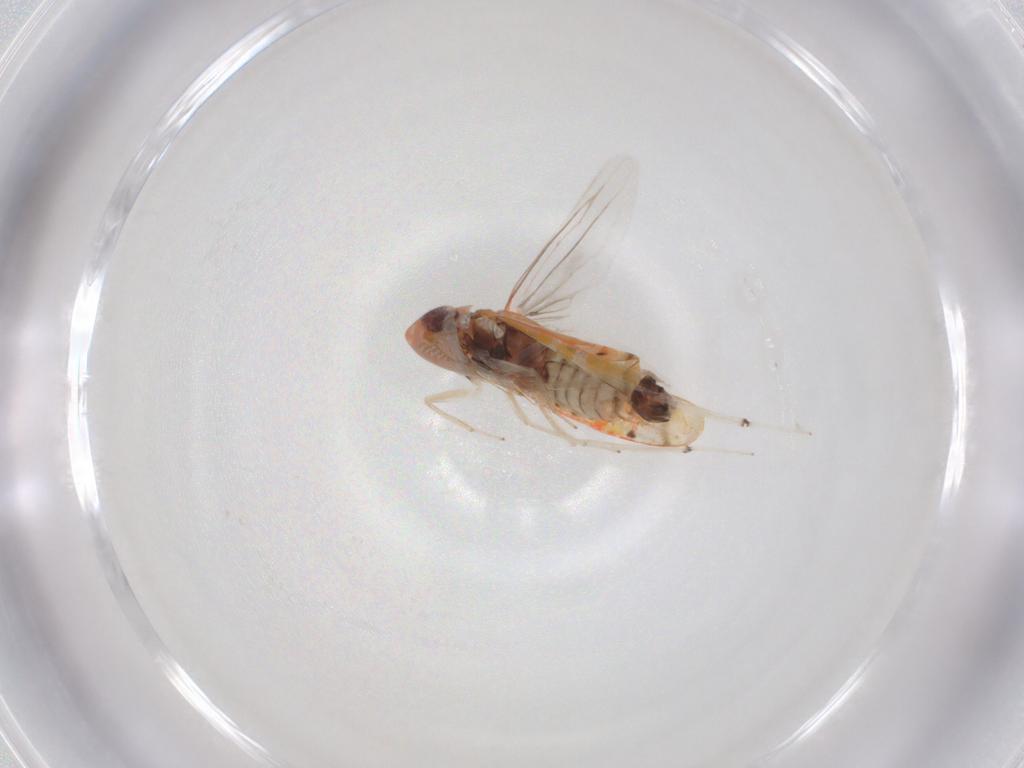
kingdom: Animalia
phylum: Arthropoda
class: Insecta
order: Hemiptera
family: Cicadellidae
